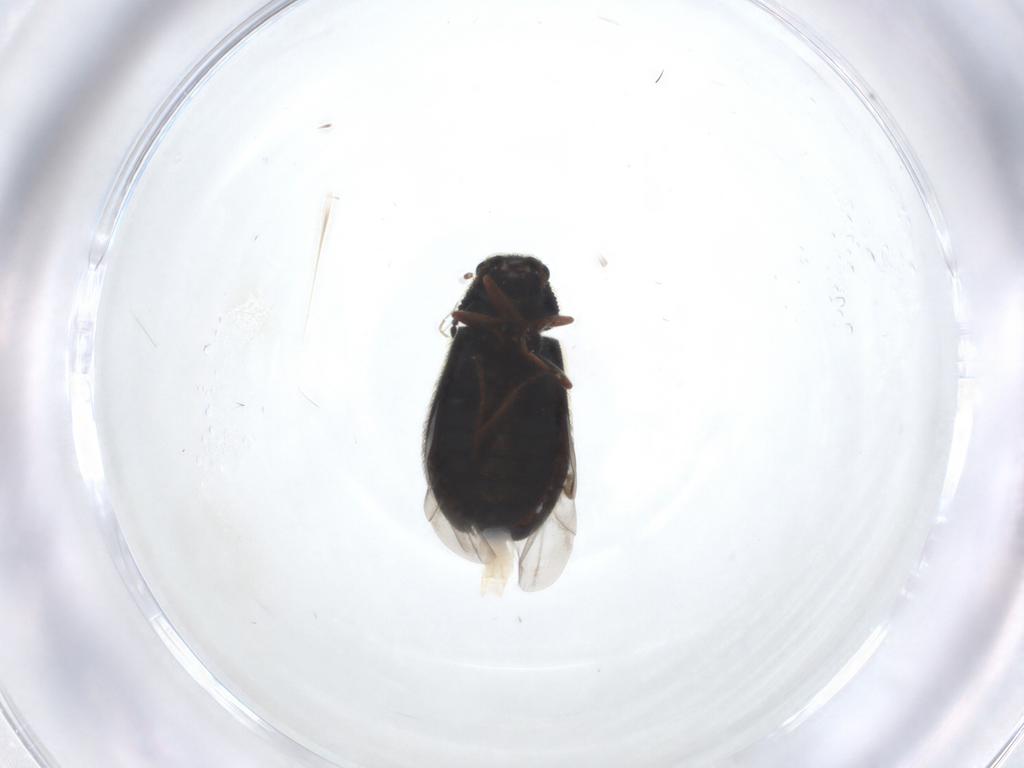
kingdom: Animalia
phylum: Arthropoda
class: Insecta
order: Coleoptera
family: Melyridae
